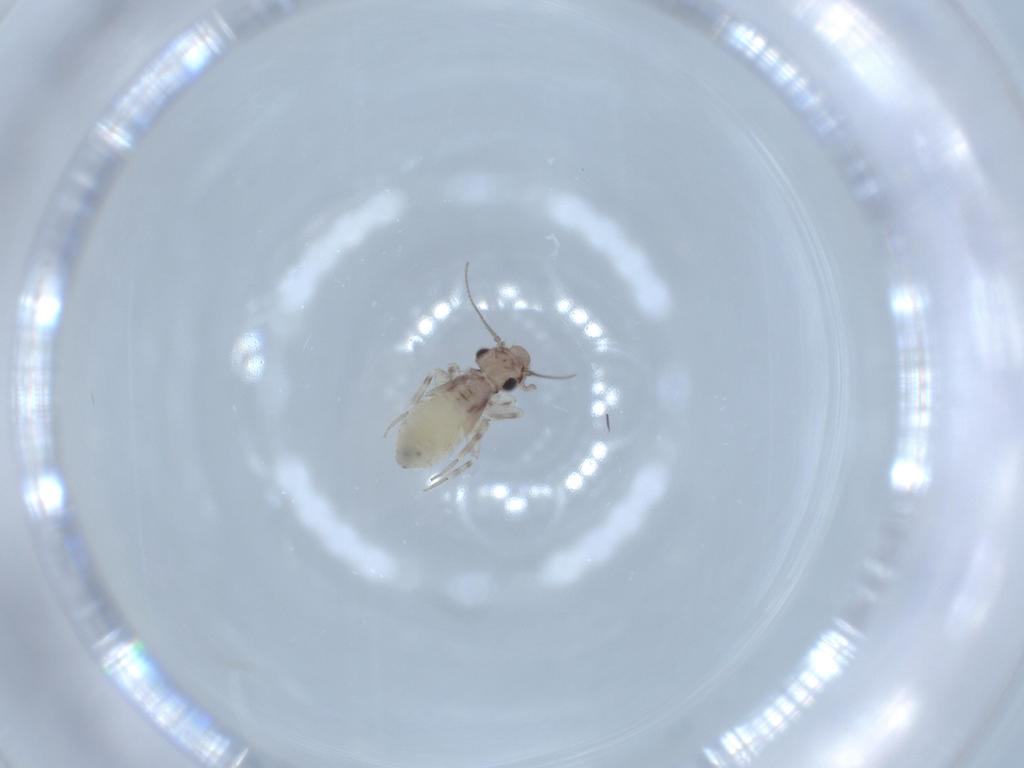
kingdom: Animalia
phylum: Arthropoda
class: Insecta
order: Psocodea
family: Lepidopsocidae
